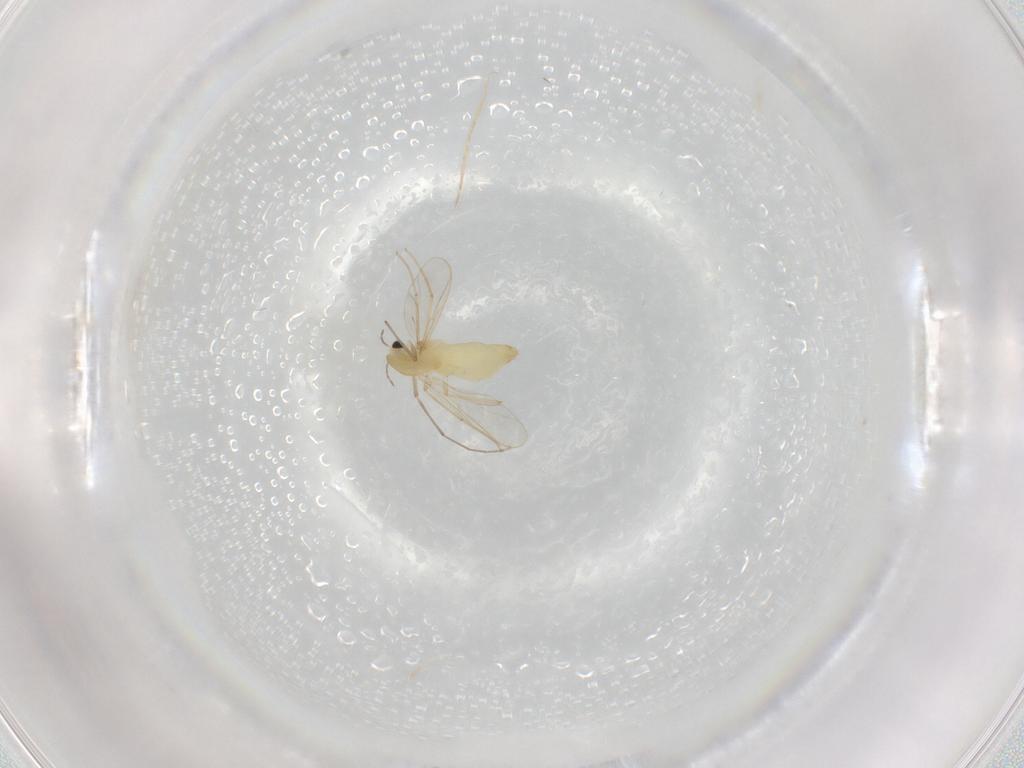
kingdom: Animalia
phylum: Arthropoda
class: Insecta
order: Diptera
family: Chironomidae
